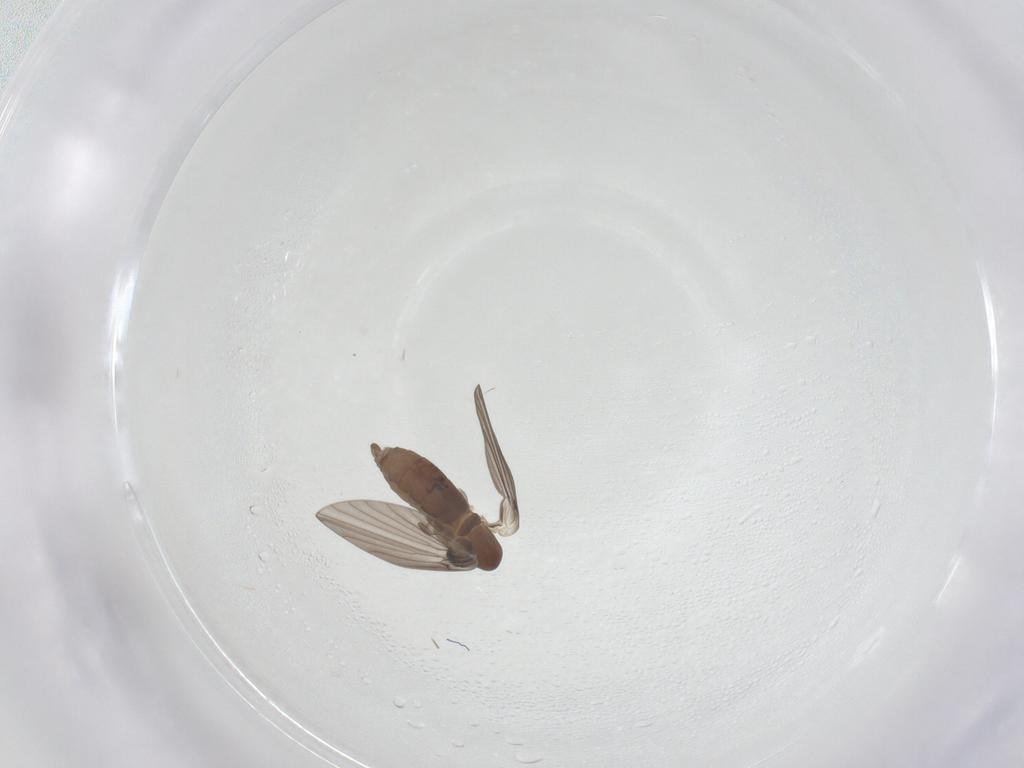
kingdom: Animalia
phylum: Arthropoda
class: Insecta
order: Diptera
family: Psychodidae
